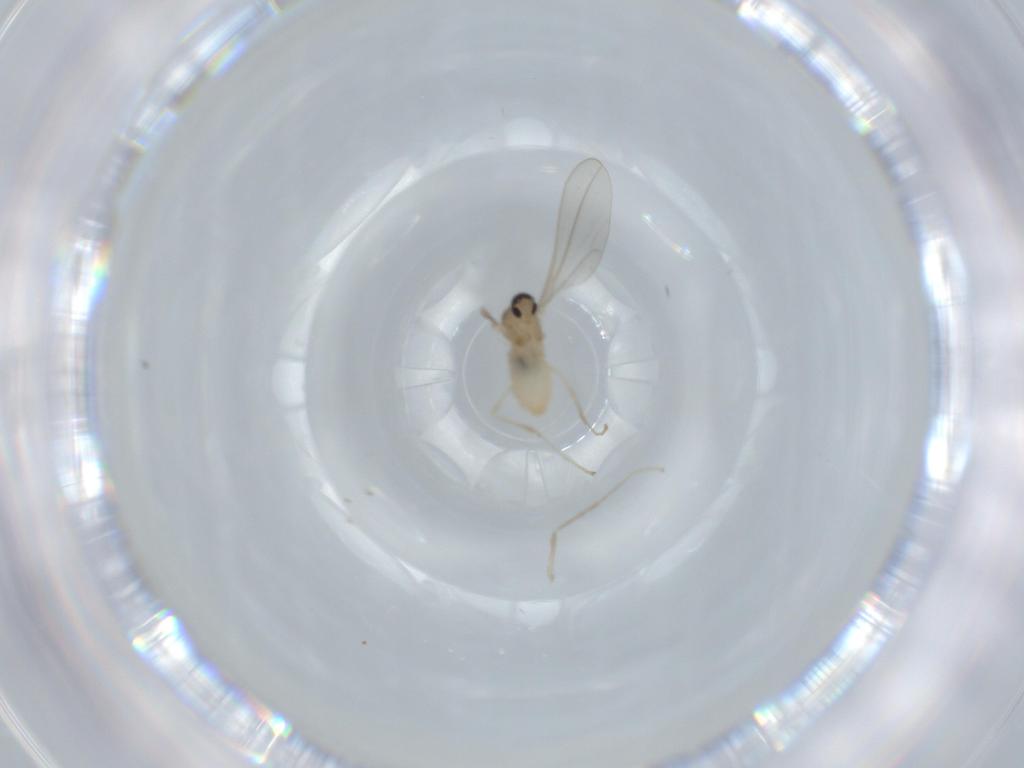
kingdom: Animalia
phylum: Arthropoda
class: Insecta
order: Diptera
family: Cecidomyiidae
